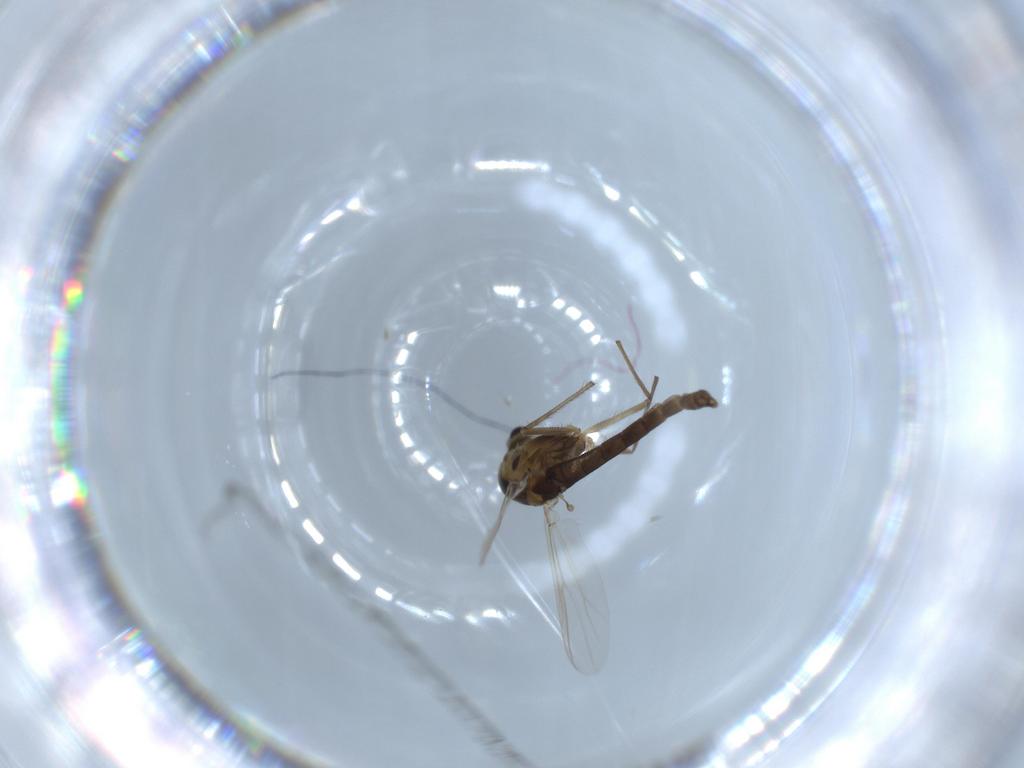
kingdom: Animalia
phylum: Arthropoda
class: Insecta
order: Diptera
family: Chironomidae
